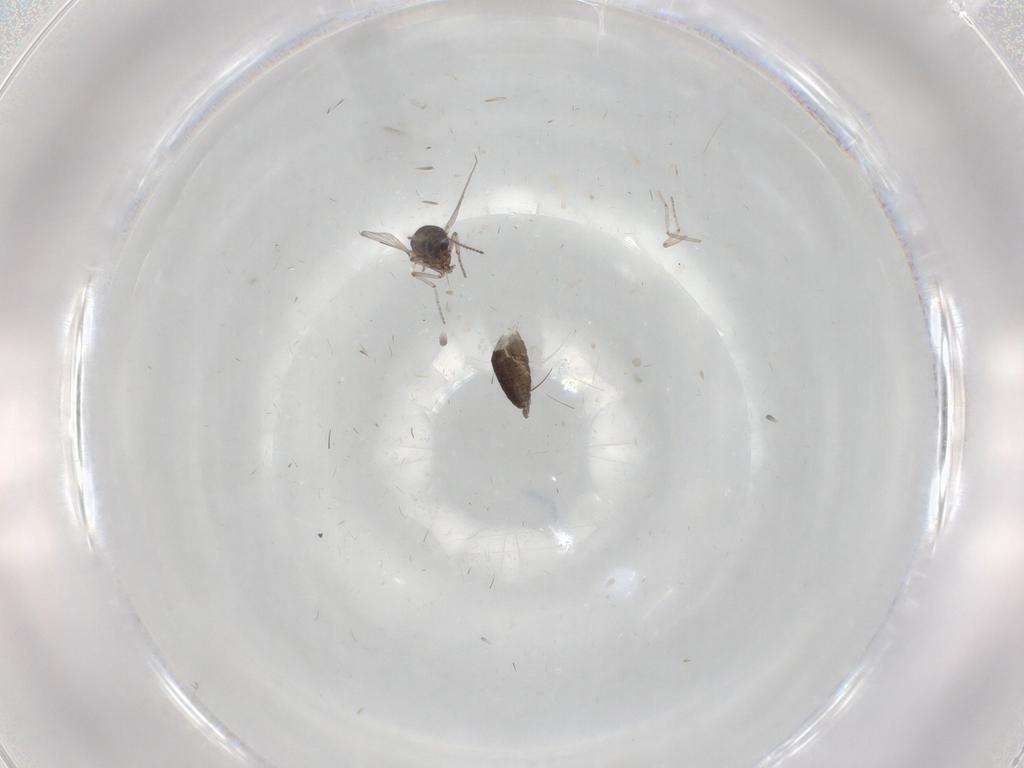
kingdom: Animalia
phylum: Arthropoda
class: Insecta
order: Diptera
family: Ceratopogonidae
